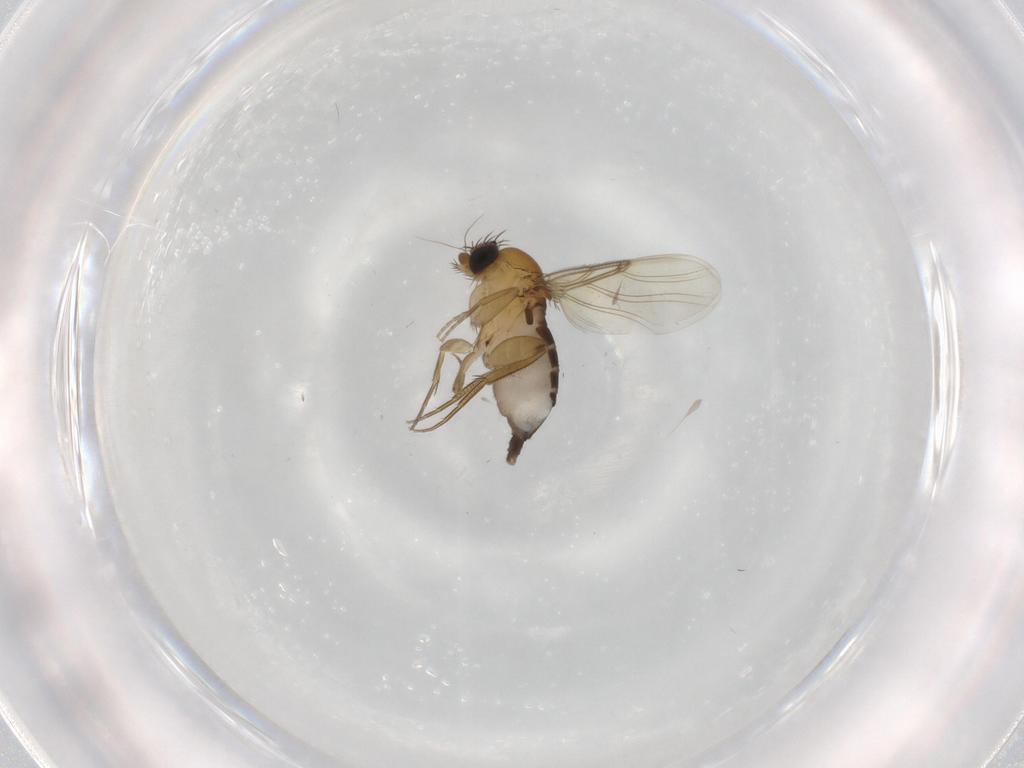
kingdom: Animalia
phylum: Arthropoda
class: Insecta
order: Diptera
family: Phoridae
